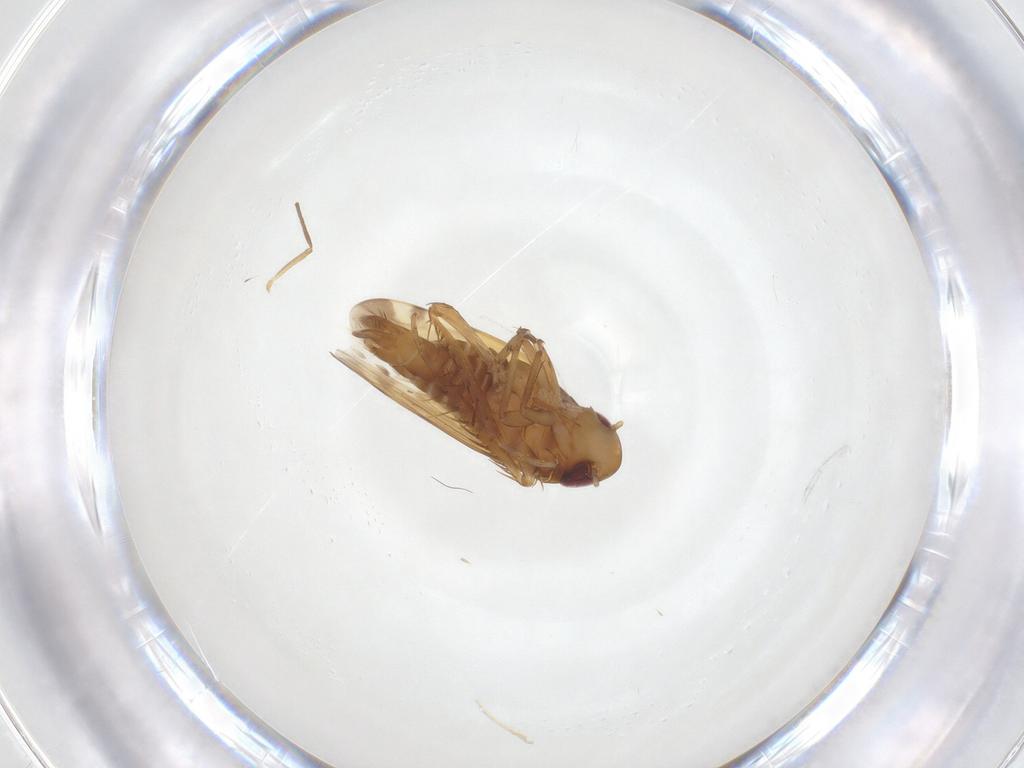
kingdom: Animalia
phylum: Arthropoda
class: Insecta
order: Hemiptera
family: Cicadellidae
